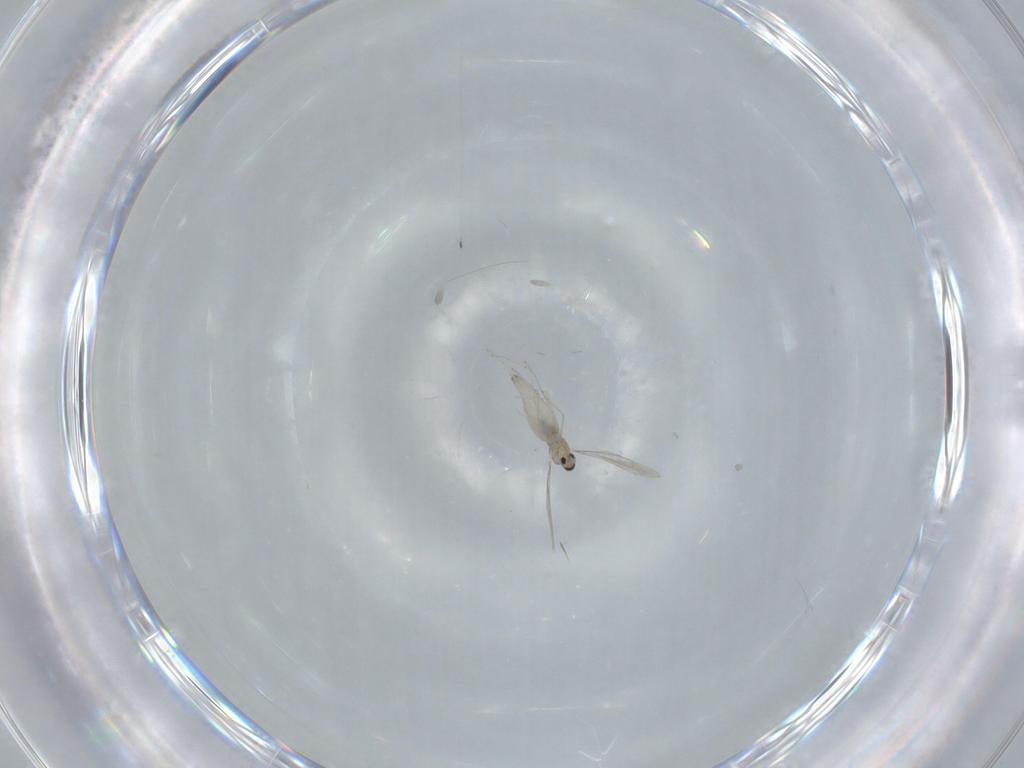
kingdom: Animalia
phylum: Arthropoda
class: Insecta
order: Diptera
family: Cecidomyiidae
